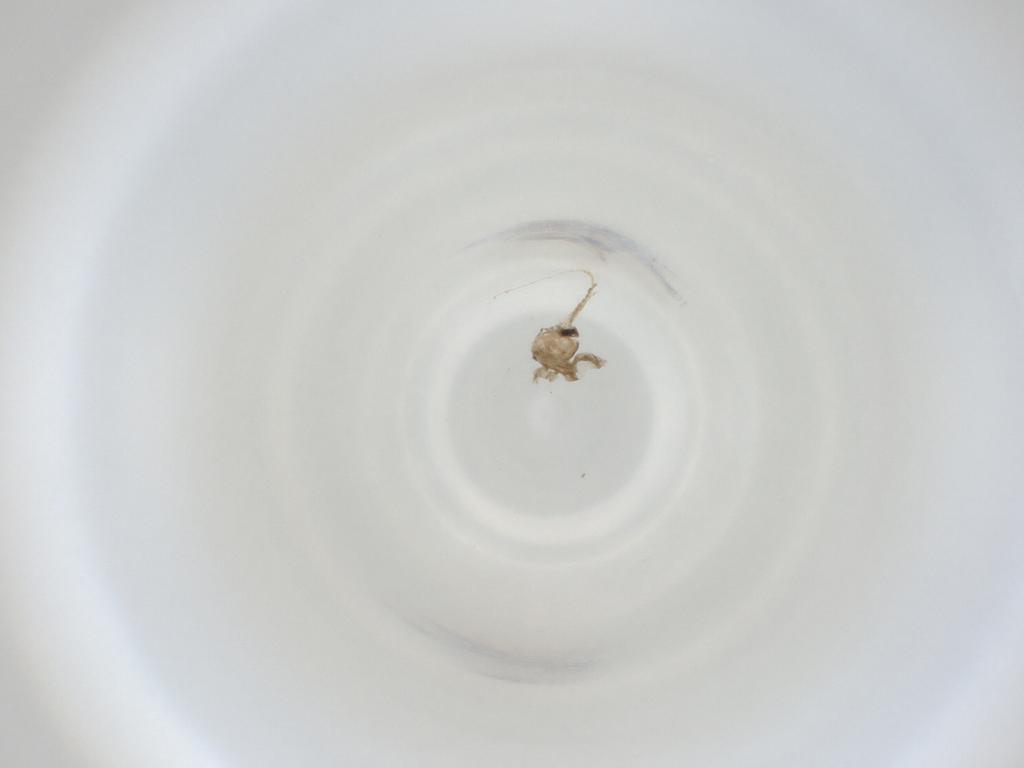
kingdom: Animalia
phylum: Arthropoda
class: Insecta
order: Diptera
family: Cecidomyiidae
